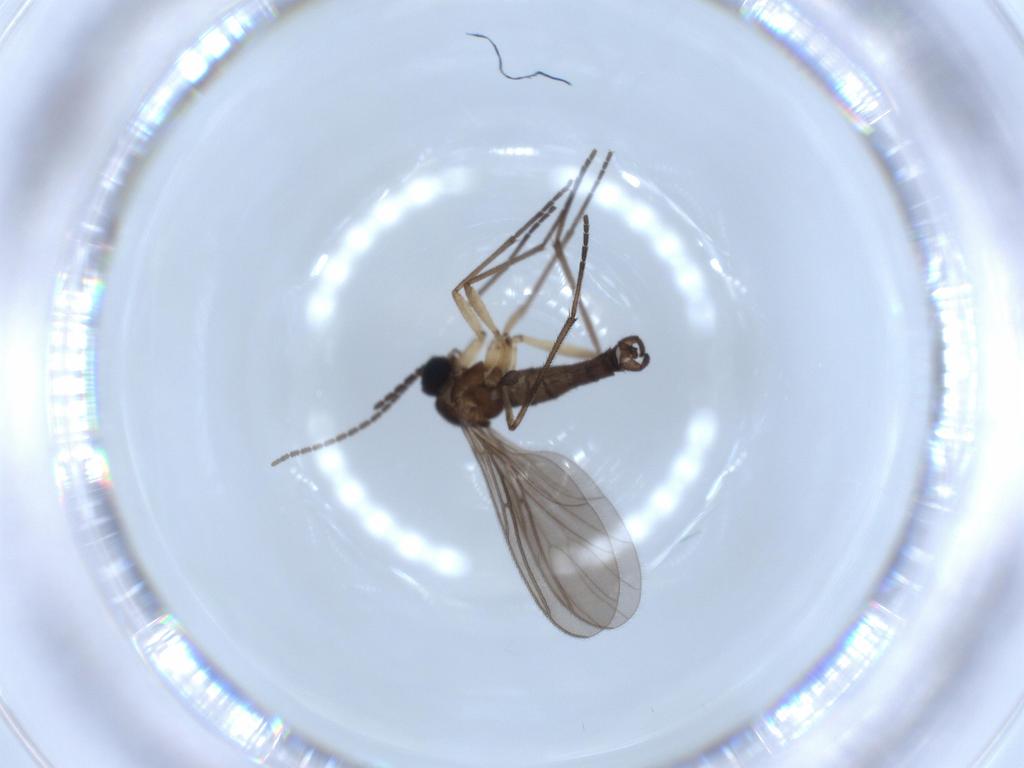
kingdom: Animalia
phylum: Arthropoda
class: Insecta
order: Diptera
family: Sciaridae
